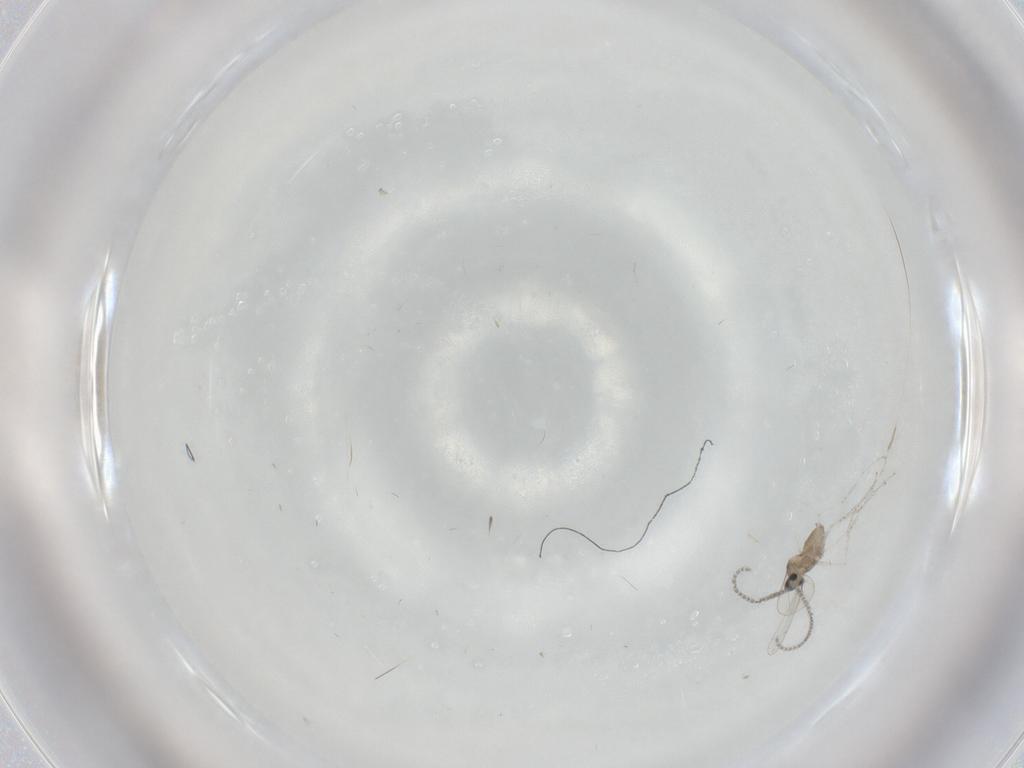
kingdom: Animalia
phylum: Arthropoda
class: Insecta
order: Diptera
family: Cecidomyiidae
